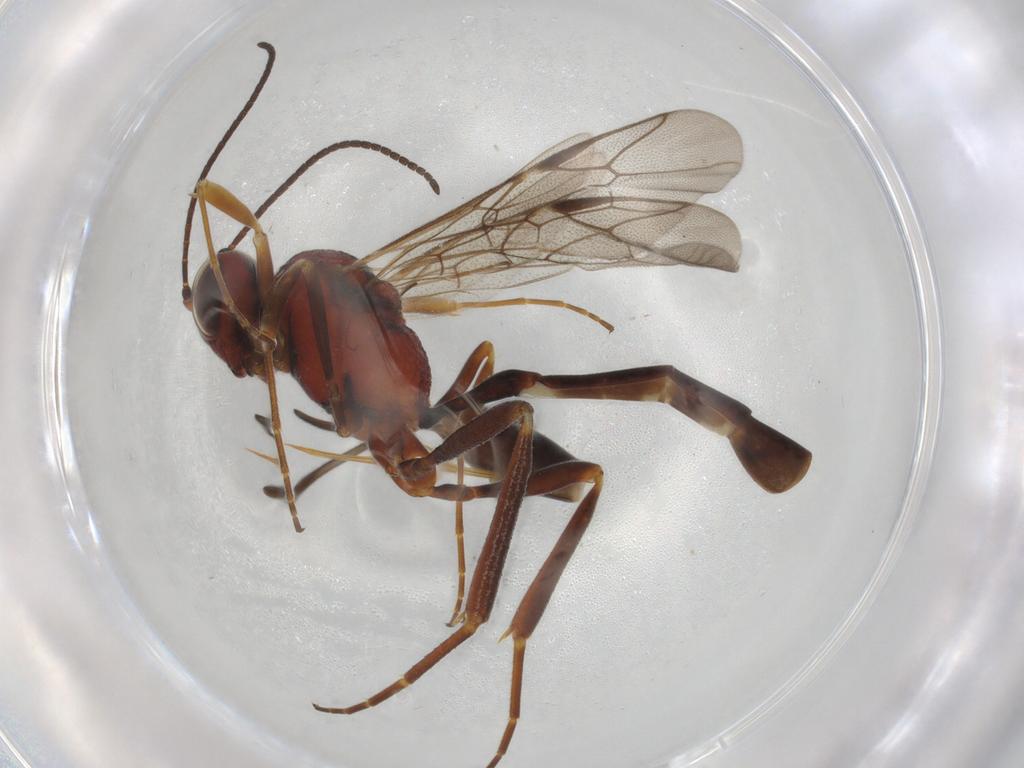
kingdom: Animalia
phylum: Arthropoda
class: Insecta
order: Hymenoptera
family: Ichneumonidae
